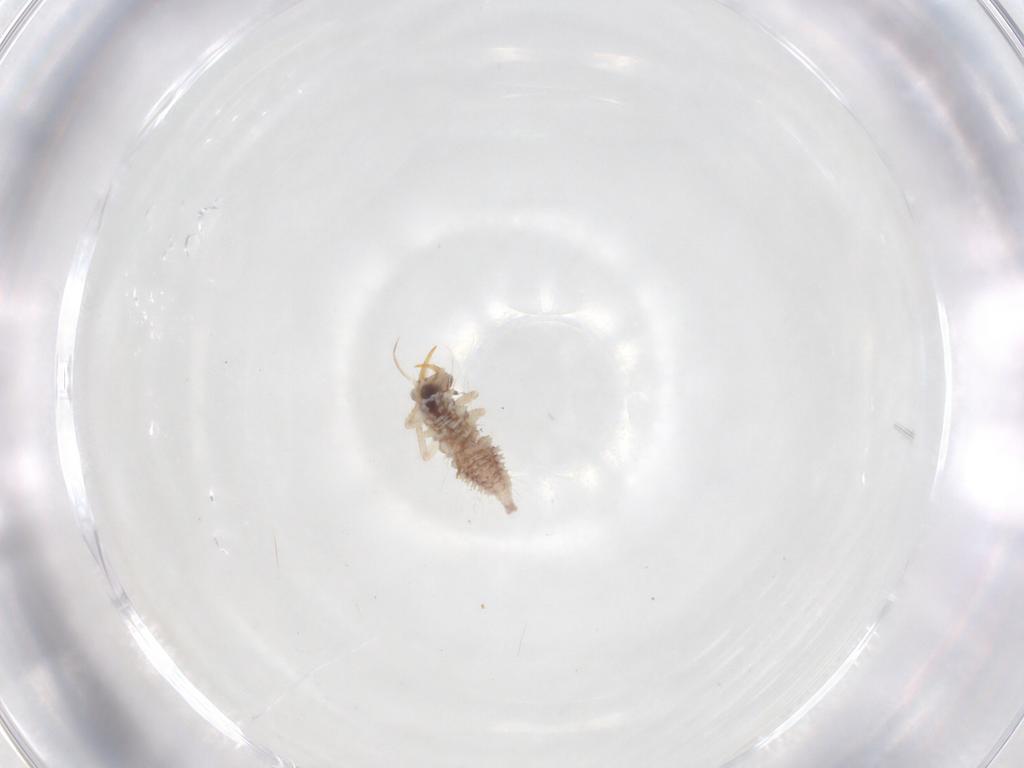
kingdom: Animalia
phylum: Arthropoda
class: Insecta
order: Lepidoptera
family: Nepticulidae
